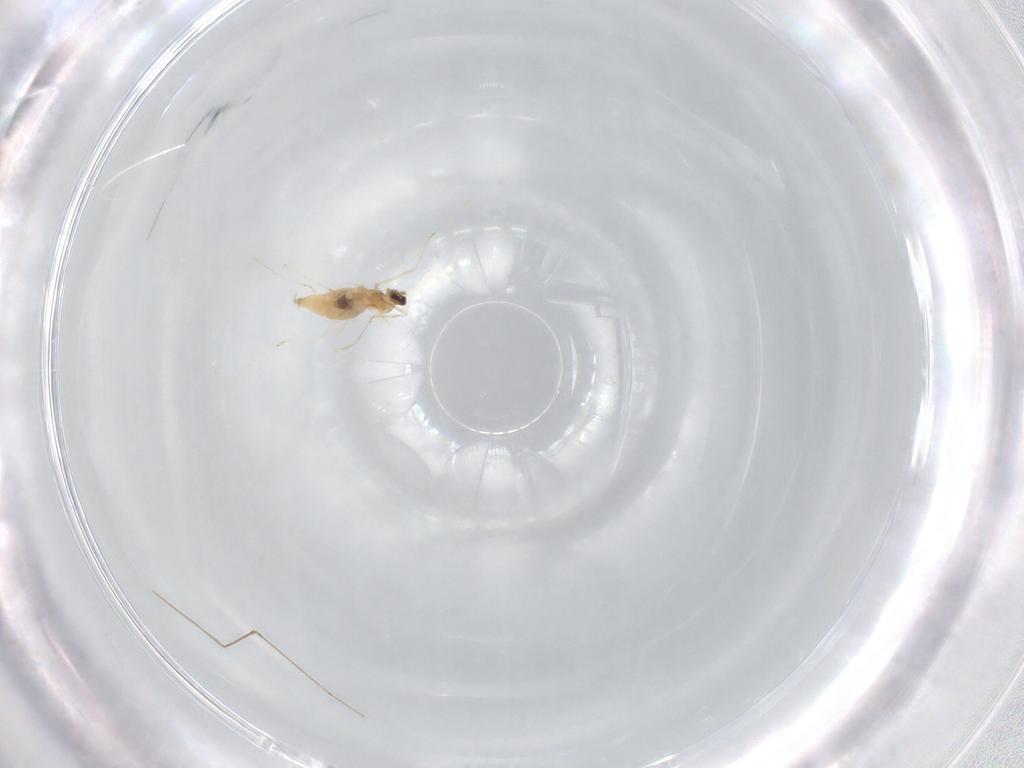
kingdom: Animalia
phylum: Arthropoda
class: Insecta
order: Diptera
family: Cecidomyiidae
